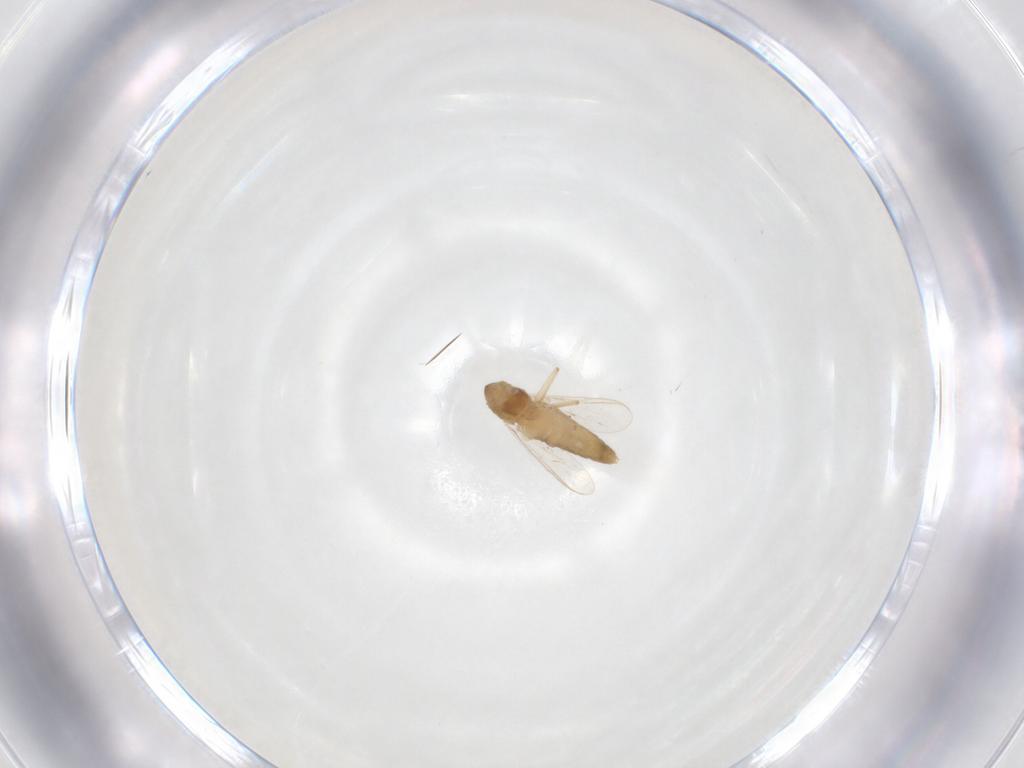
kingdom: Animalia
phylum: Arthropoda
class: Insecta
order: Diptera
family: Chironomidae
